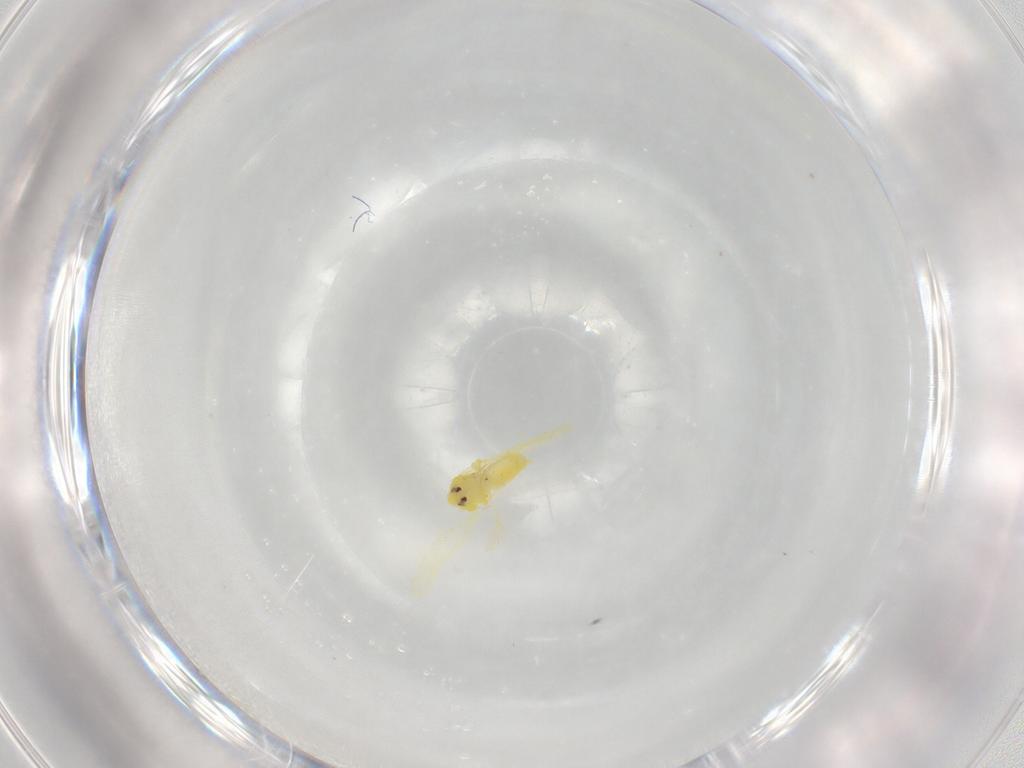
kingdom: Animalia
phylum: Arthropoda
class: Insecta
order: Hemiptera
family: Aleyrodidae
